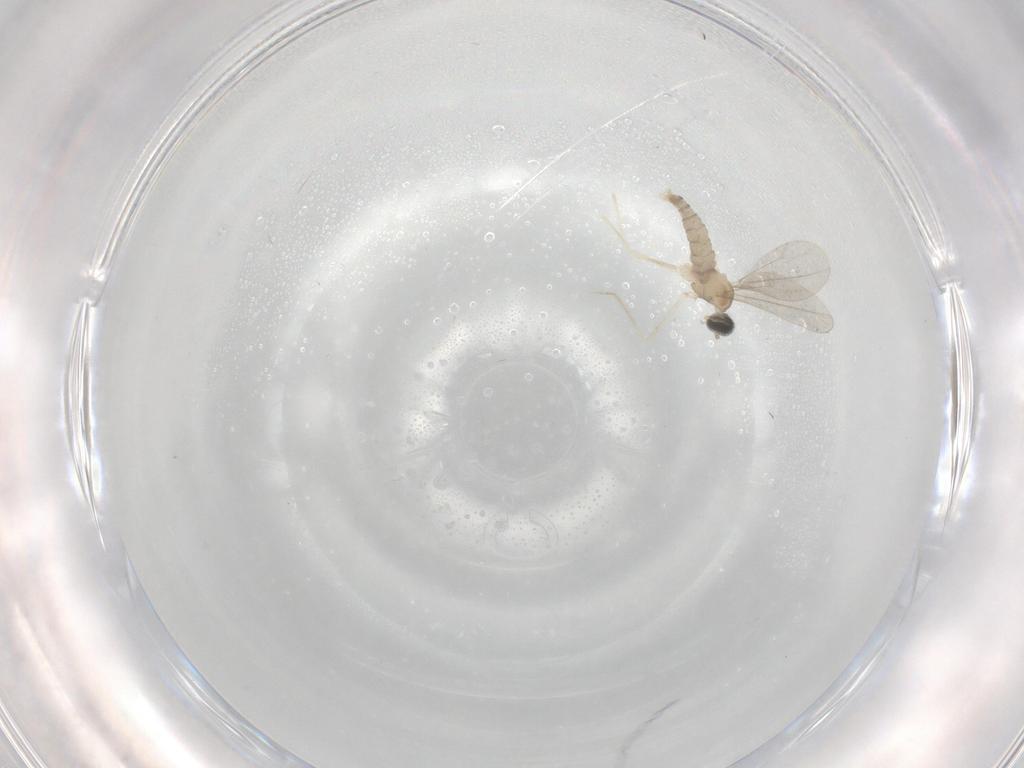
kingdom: Animalia
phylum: Arthropoda
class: Insecta
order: Diptera
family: Cecidomyiidae
